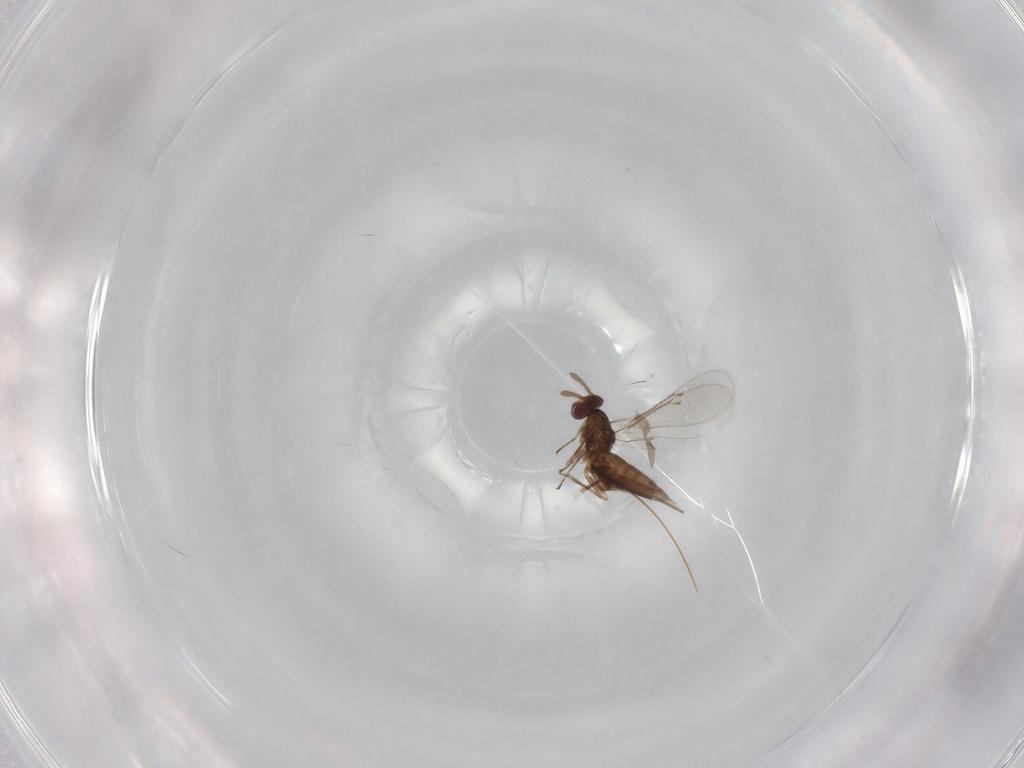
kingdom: Animalia
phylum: Arthropoda
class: Insecta
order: Hymenoptera
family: Eulophidae
